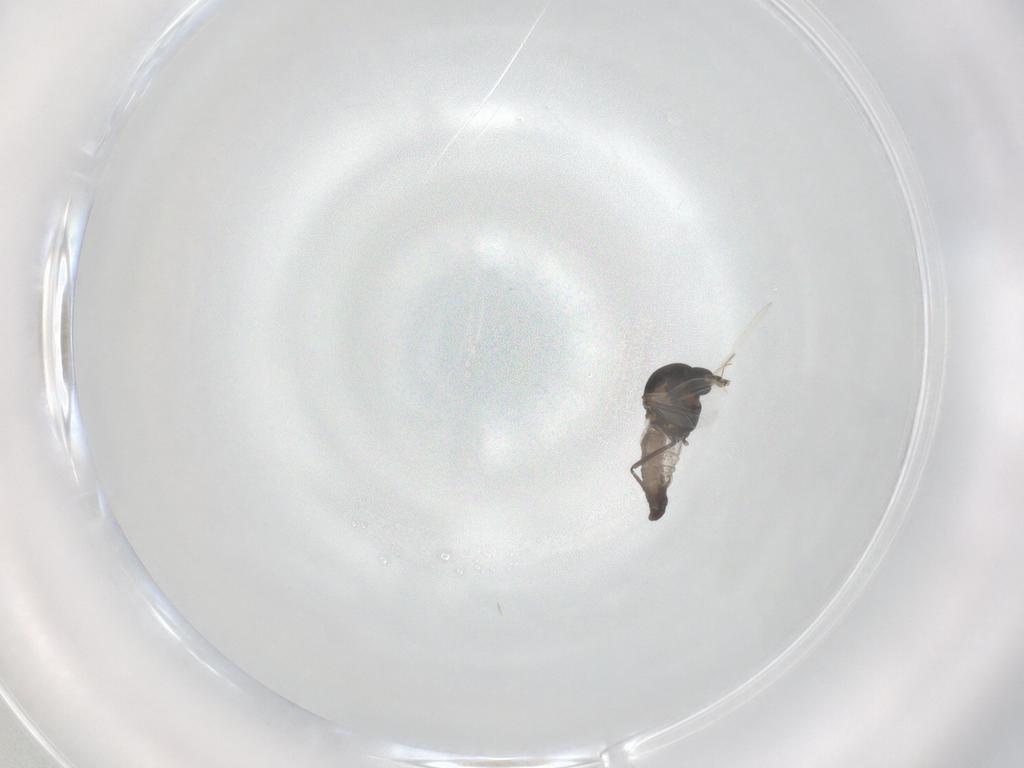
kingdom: Animalia
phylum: Arthropoda
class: Insecta
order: Diptera
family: Ceratopogonidae
